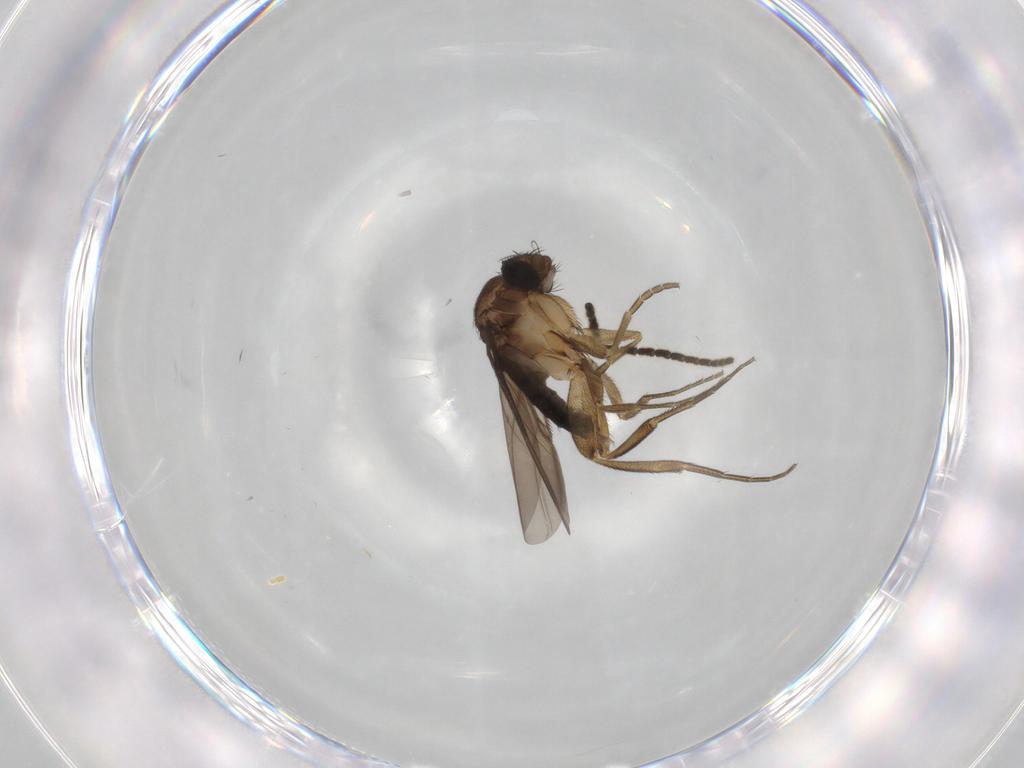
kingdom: Animalia
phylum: Arthropoda
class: Insecta
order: Diptera
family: Phoridae
